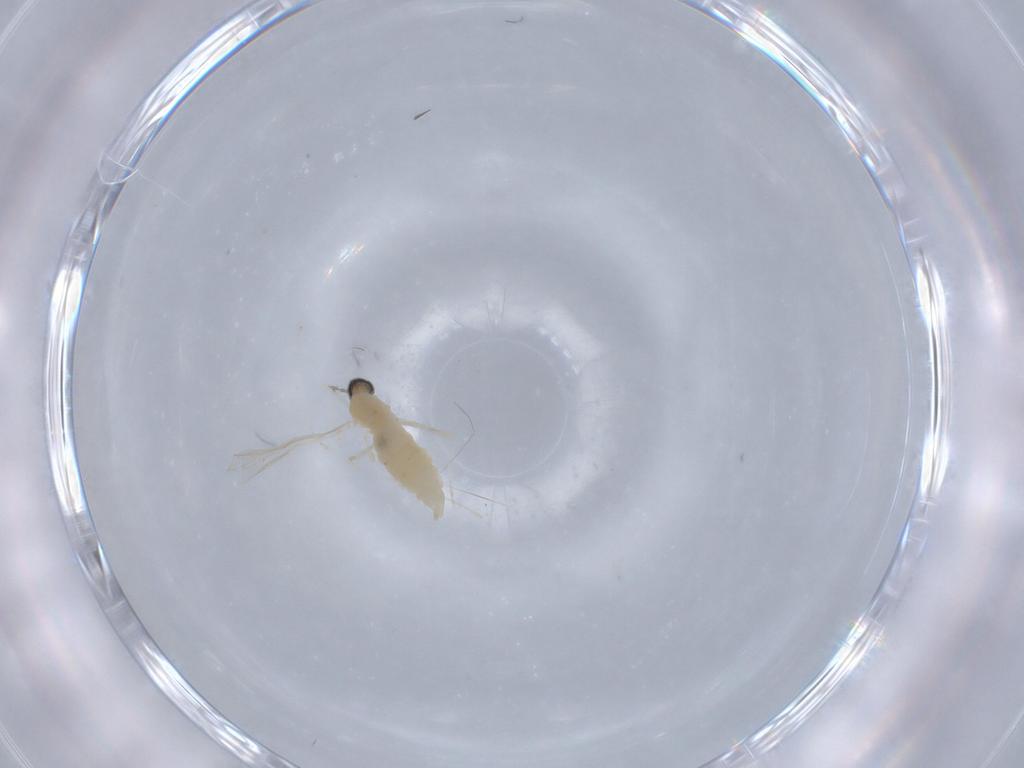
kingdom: Animalia
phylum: Arthropoda
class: Insecta
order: Diptera
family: Cecidomyiidae
